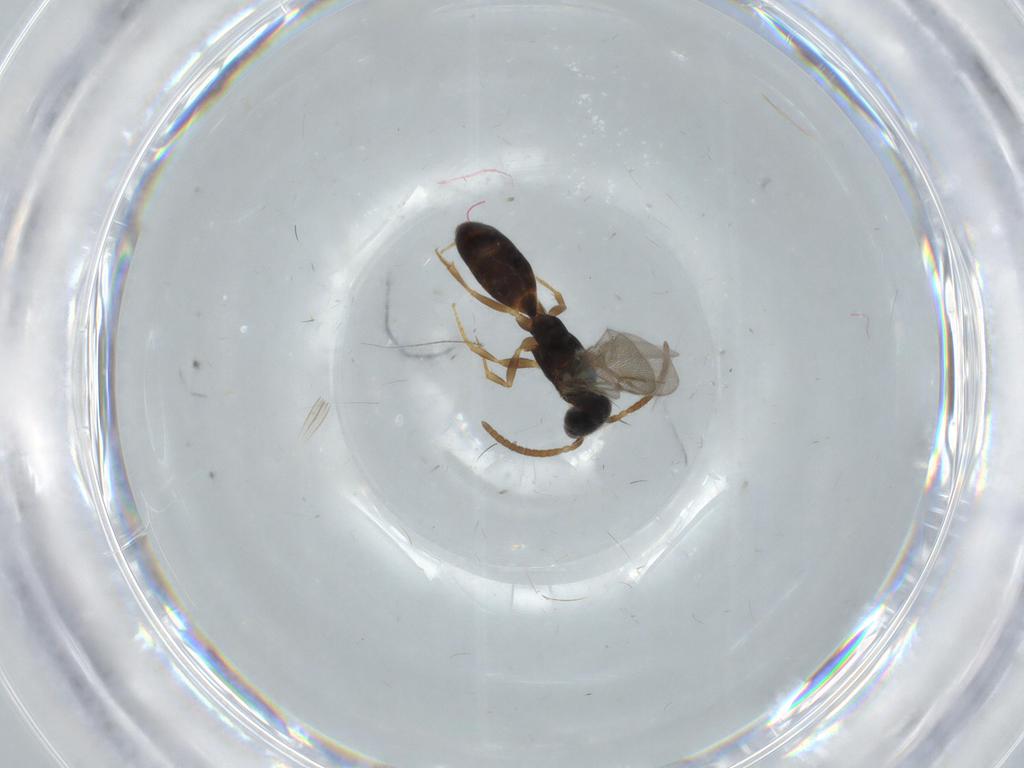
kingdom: Animalia
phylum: Arthropoda
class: Insecta
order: Hymenoptera
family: Bethylidae
